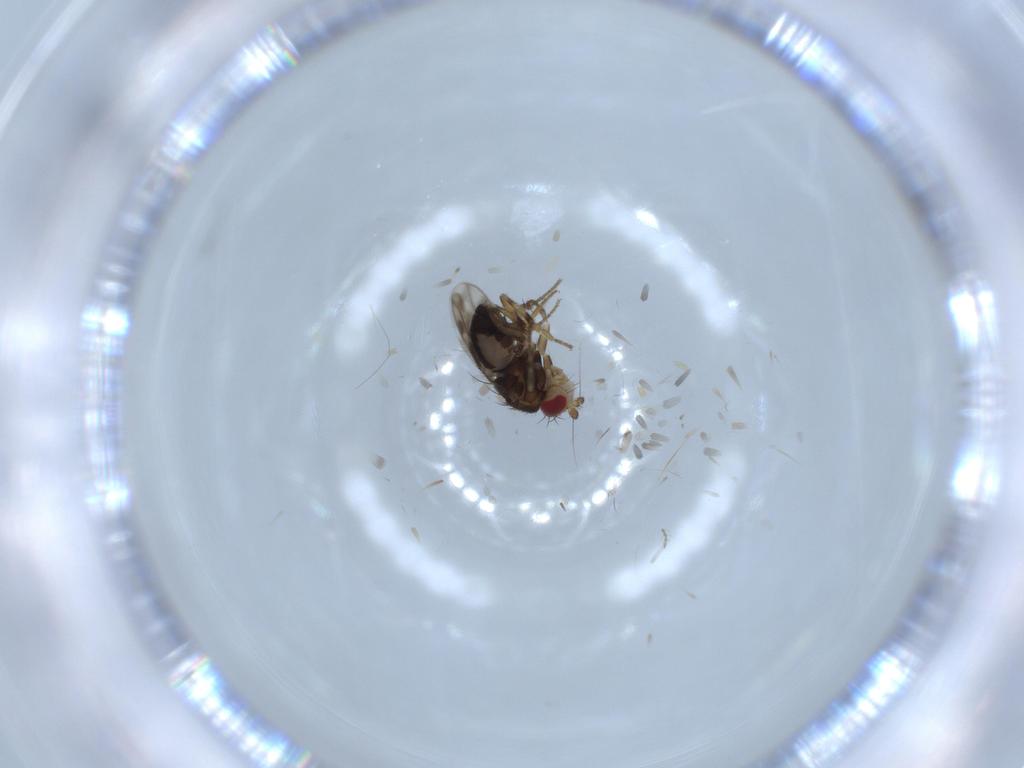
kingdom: Animalia
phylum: Arthropoda
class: Insecta
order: Diptera
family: Sphaeroceridae
